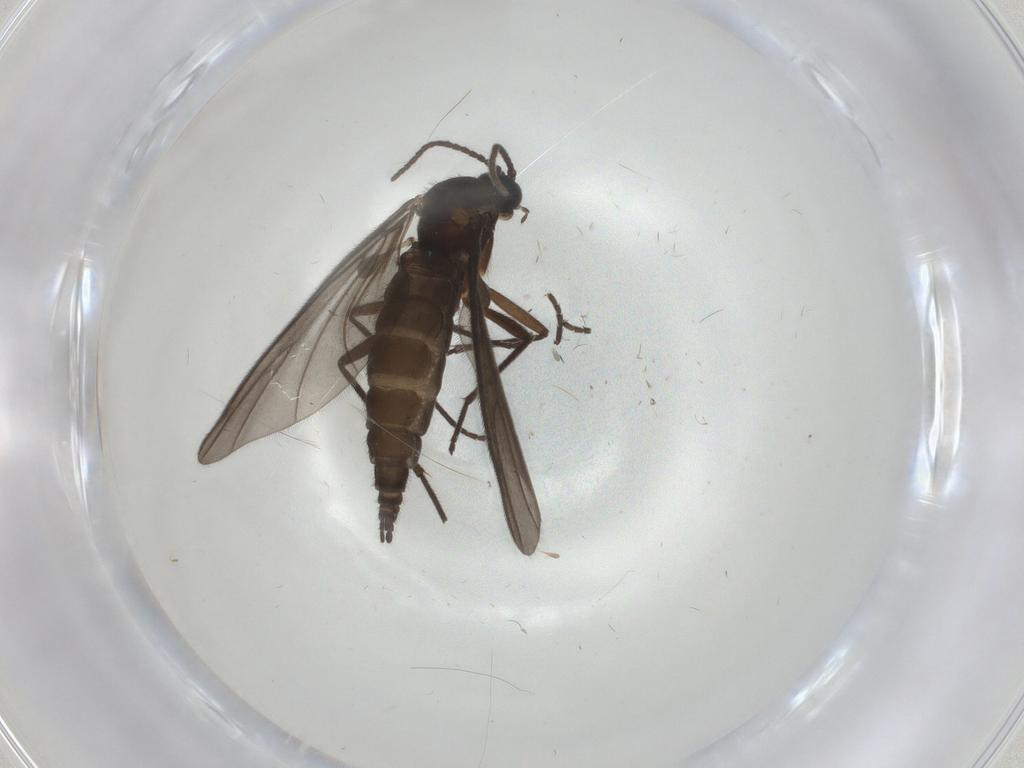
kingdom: Animalia
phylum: Arthropoda
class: Insecta
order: Diptera
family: Sciaridae
